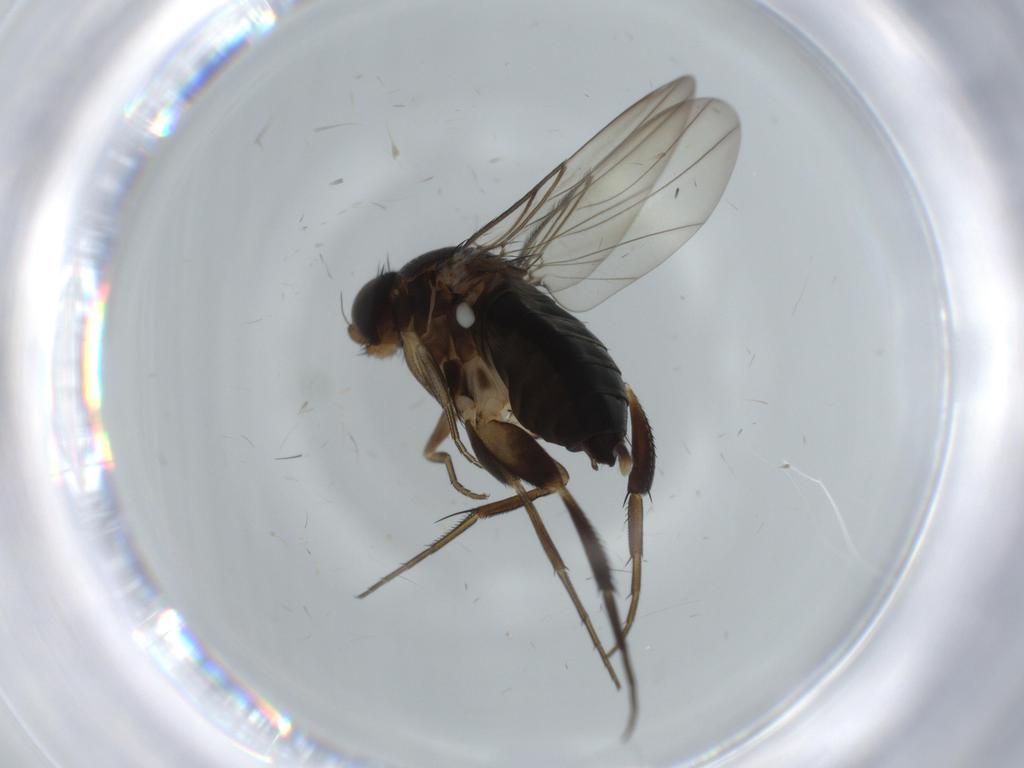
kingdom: Animalia
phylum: Arthropoda
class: Insecta
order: Diptera
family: Phoridae
